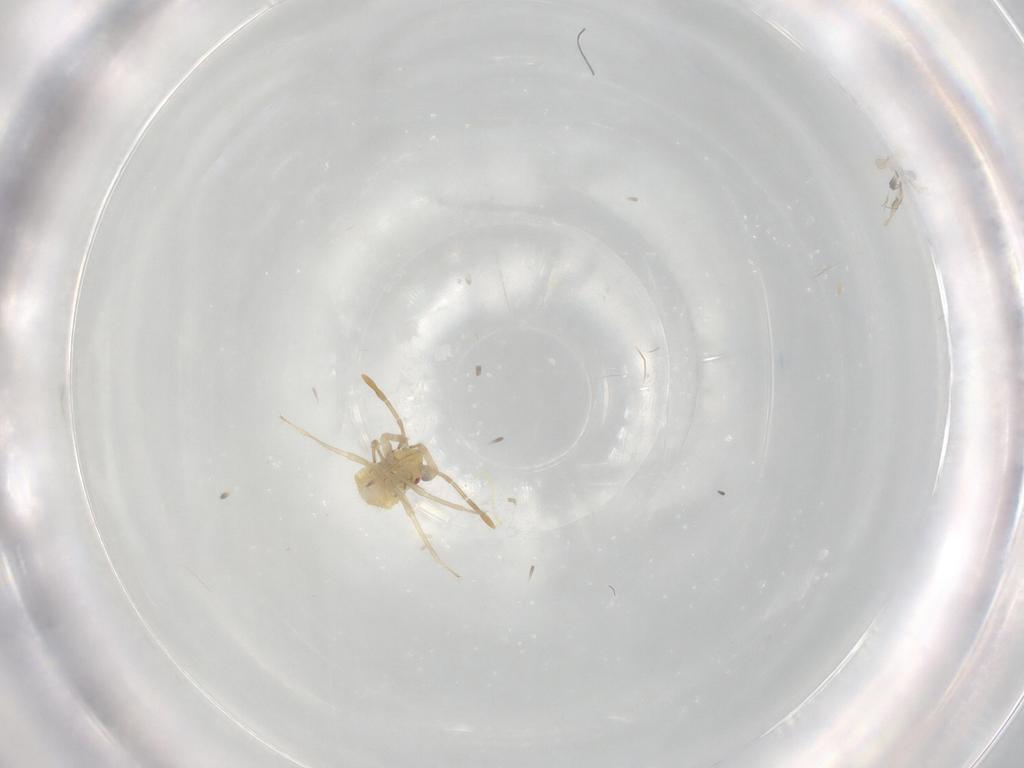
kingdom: Animalia
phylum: Arthropoda
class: Insecta
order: Hemiptera
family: Miridae
